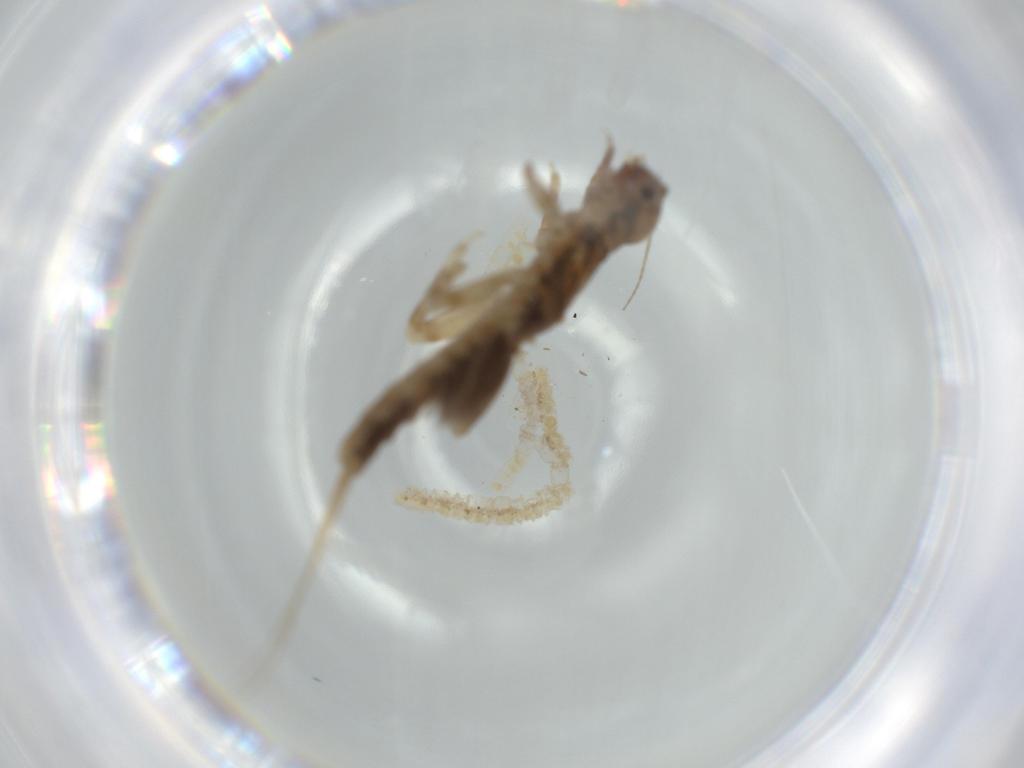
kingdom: Animalia
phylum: Arthropoda
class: Insecta
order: Ephemeroptera
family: Caenidae
